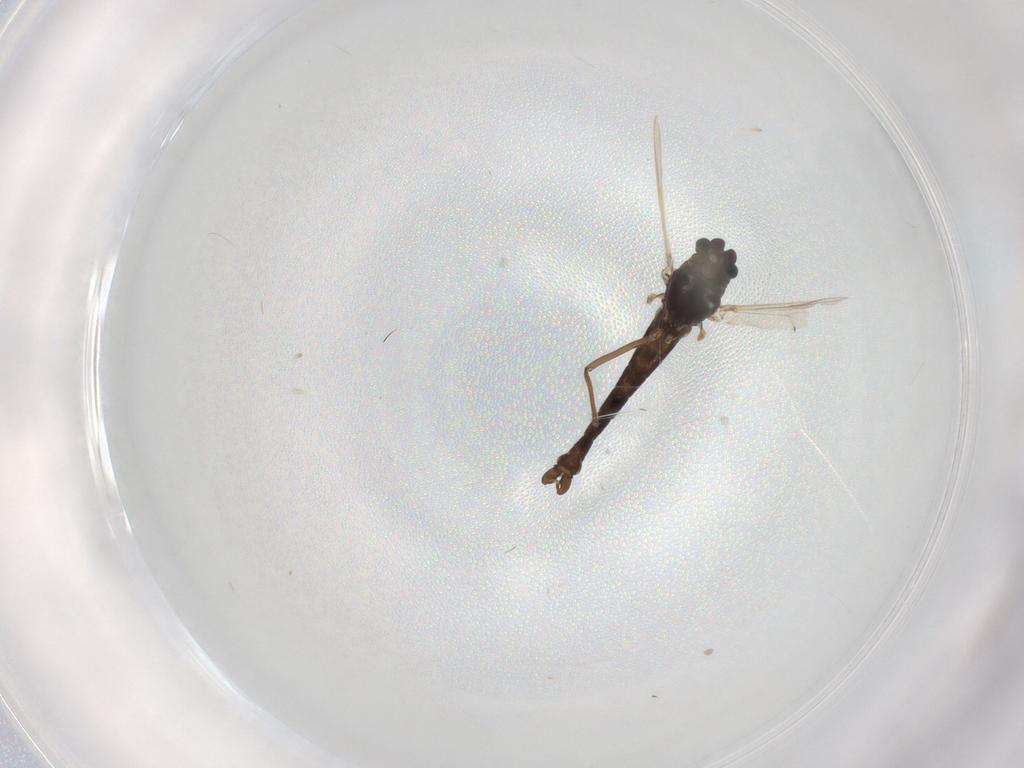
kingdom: Animalia
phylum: Arthropoda
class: Insecta
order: Diptera
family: Chironomidae
